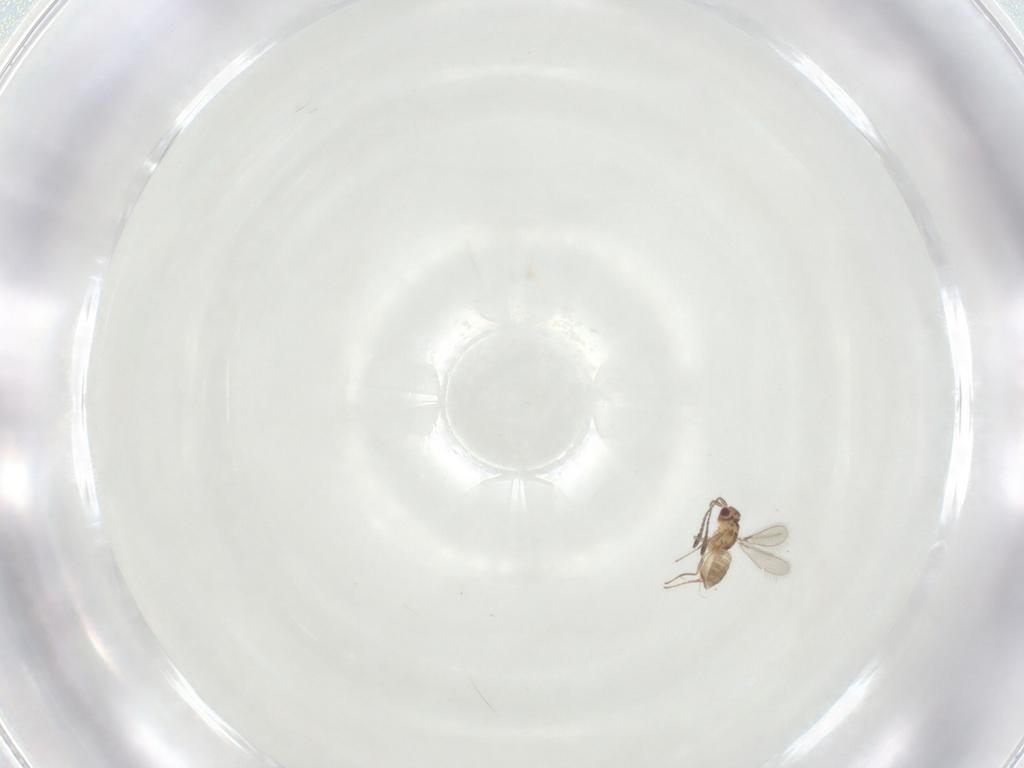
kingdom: Animalia
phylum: Arthropoda
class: Insecta
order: Hymenoptera
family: Mymaridae
